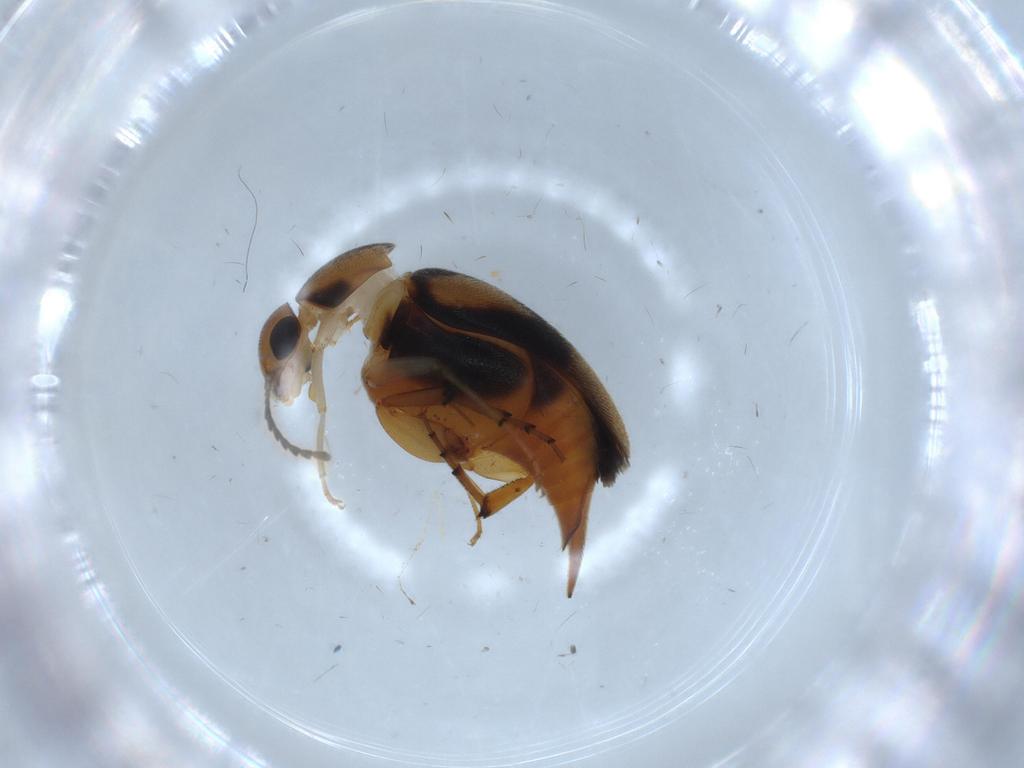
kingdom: Animalia
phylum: Arthropoda
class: Insecta
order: Coleoptera
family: Mordellidae
